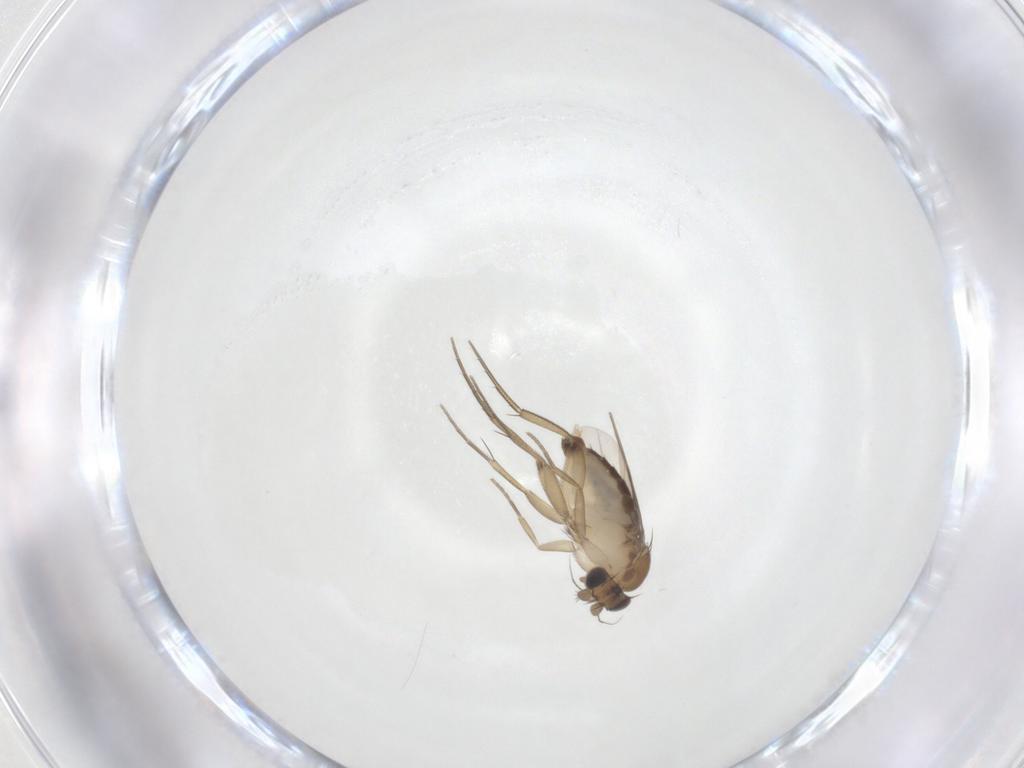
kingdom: Animalia
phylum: Arthropoda
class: Insecta
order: Diptera
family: Phoridae
